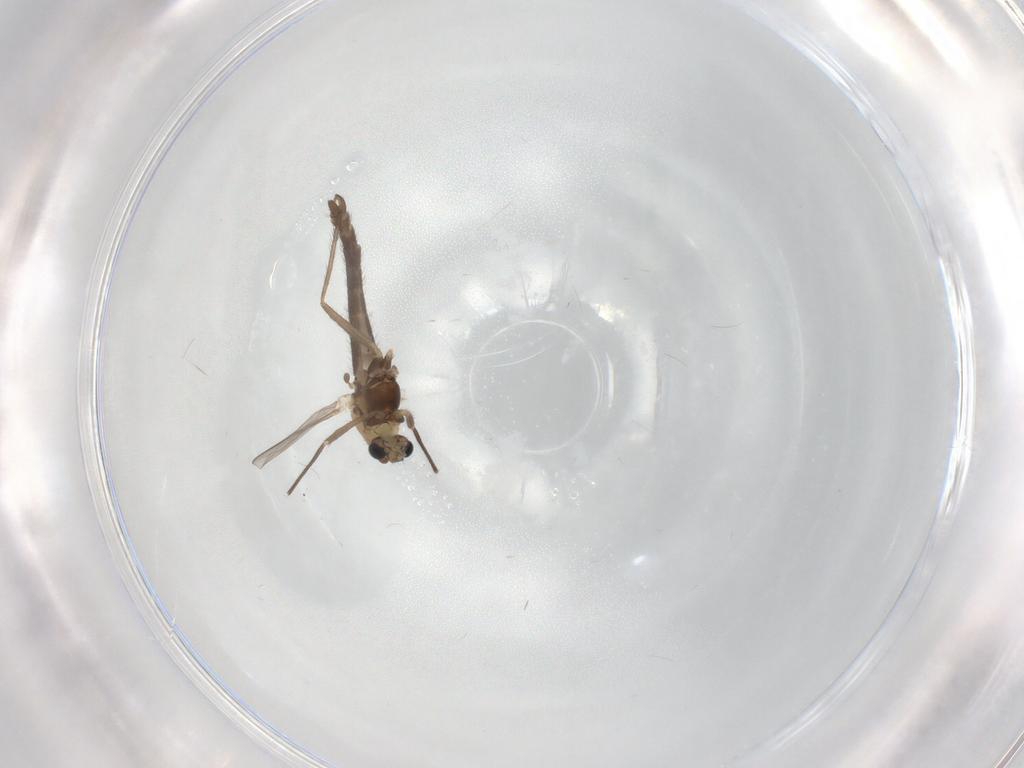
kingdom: Animalia
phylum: Arthropoda
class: Insecta
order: Diptera
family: Chironomidae
